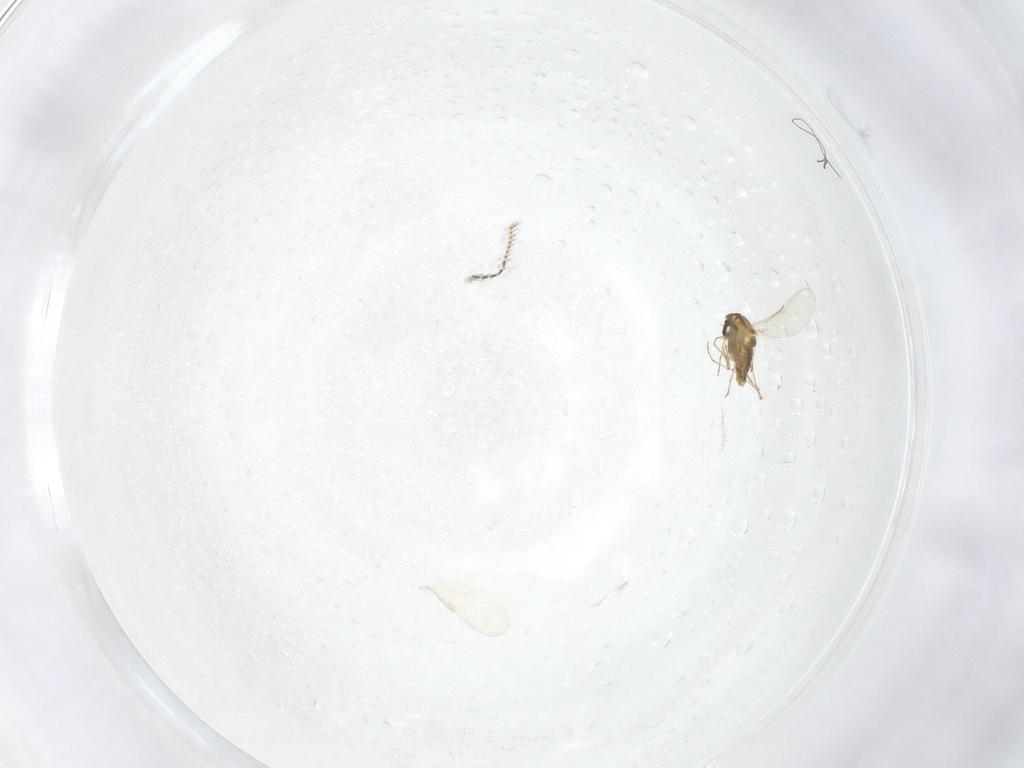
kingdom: Animalia
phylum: Arthropoda
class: Insecta
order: Diptera
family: Chironomidae
